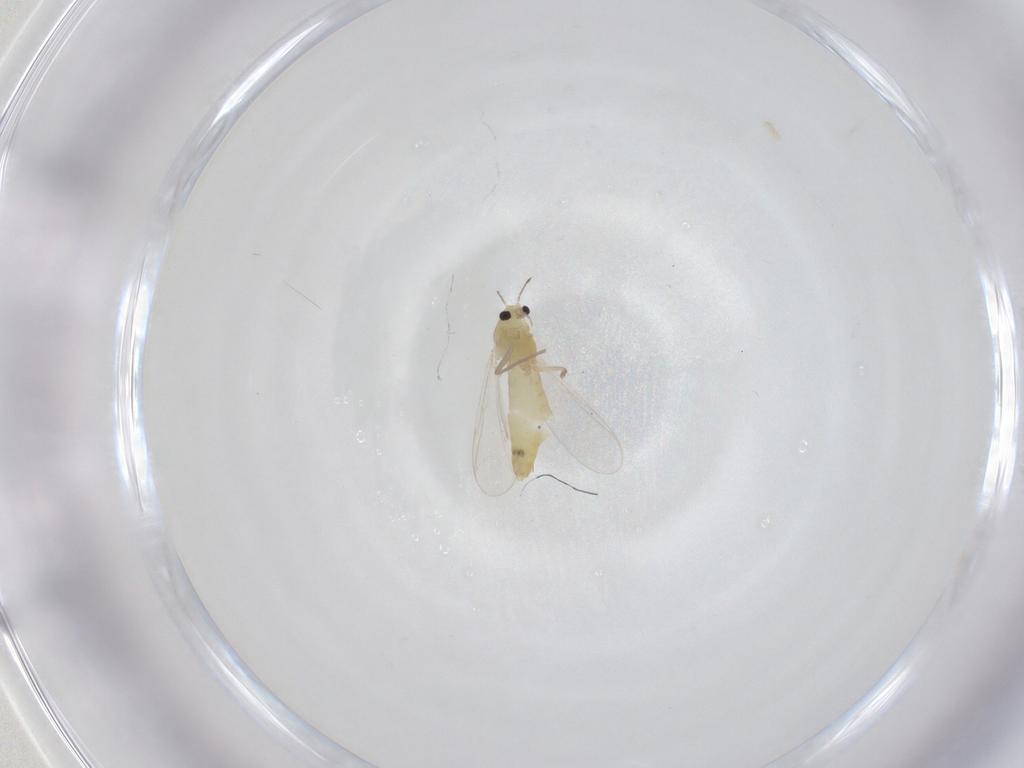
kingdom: Animalia
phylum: Arthropoda
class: Insecta
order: Diptera
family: Chironomidae
